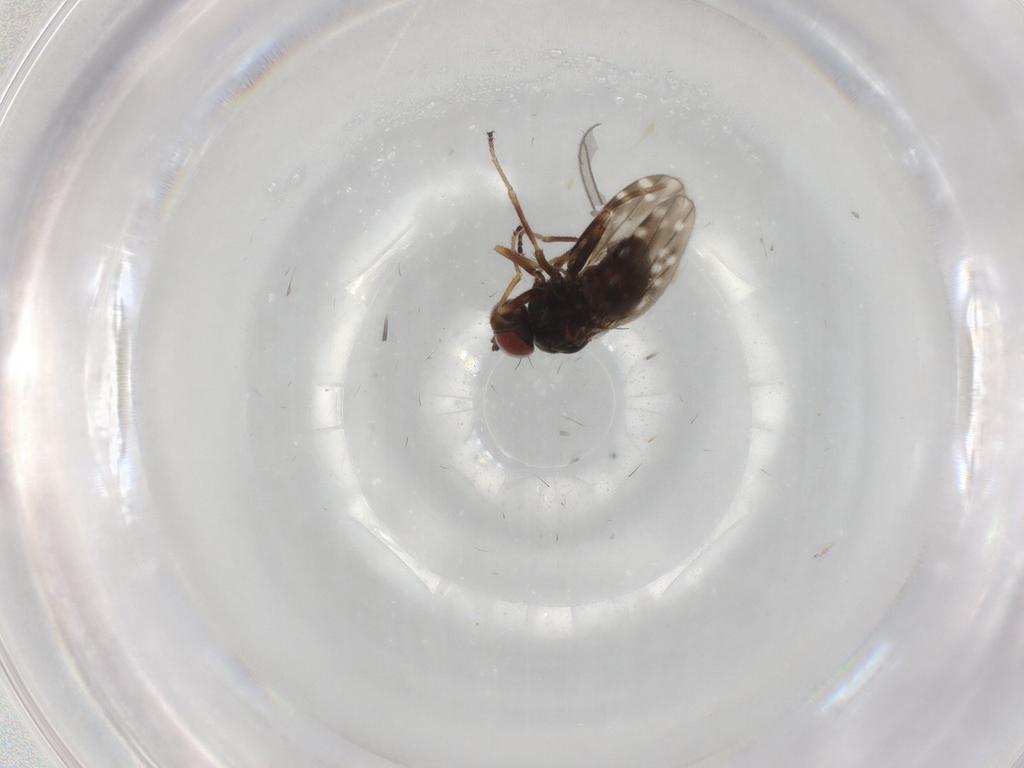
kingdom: Animalia
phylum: Arthropoda
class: Insecta
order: Diptera
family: Ephydridae
